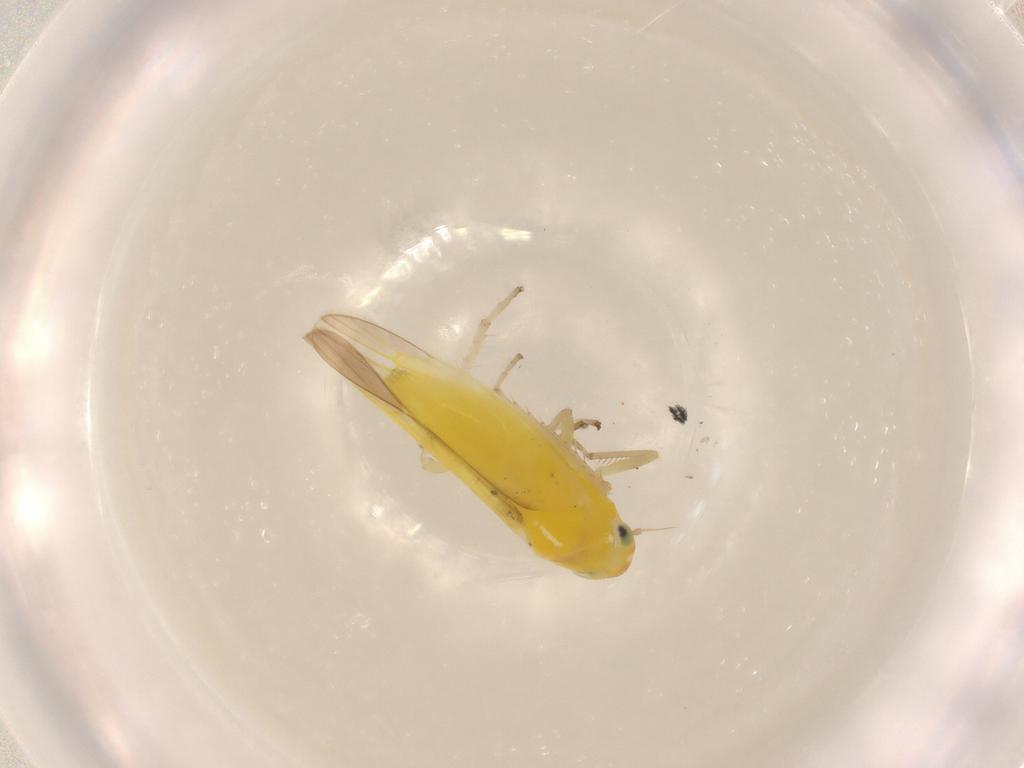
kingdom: Animalia
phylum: Arthropoda
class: Insecta
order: Hemiptera
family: Cicadellidae
